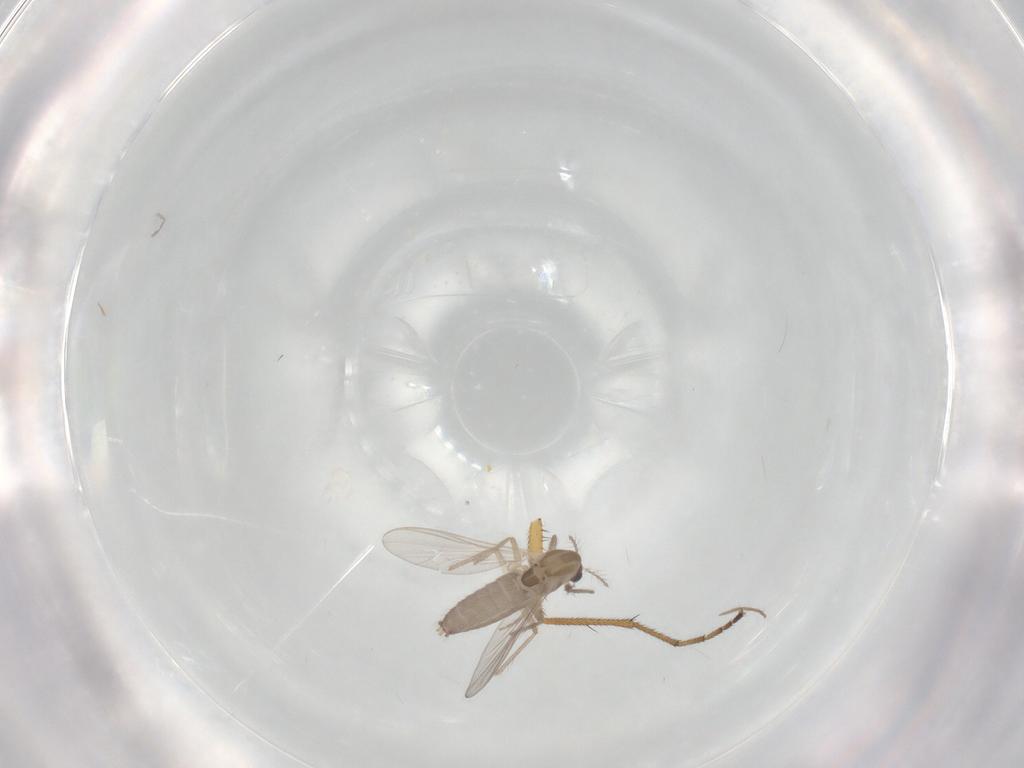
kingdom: Animalia
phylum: Arthropoda
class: Insecta
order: Diptera
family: Chironomidae
